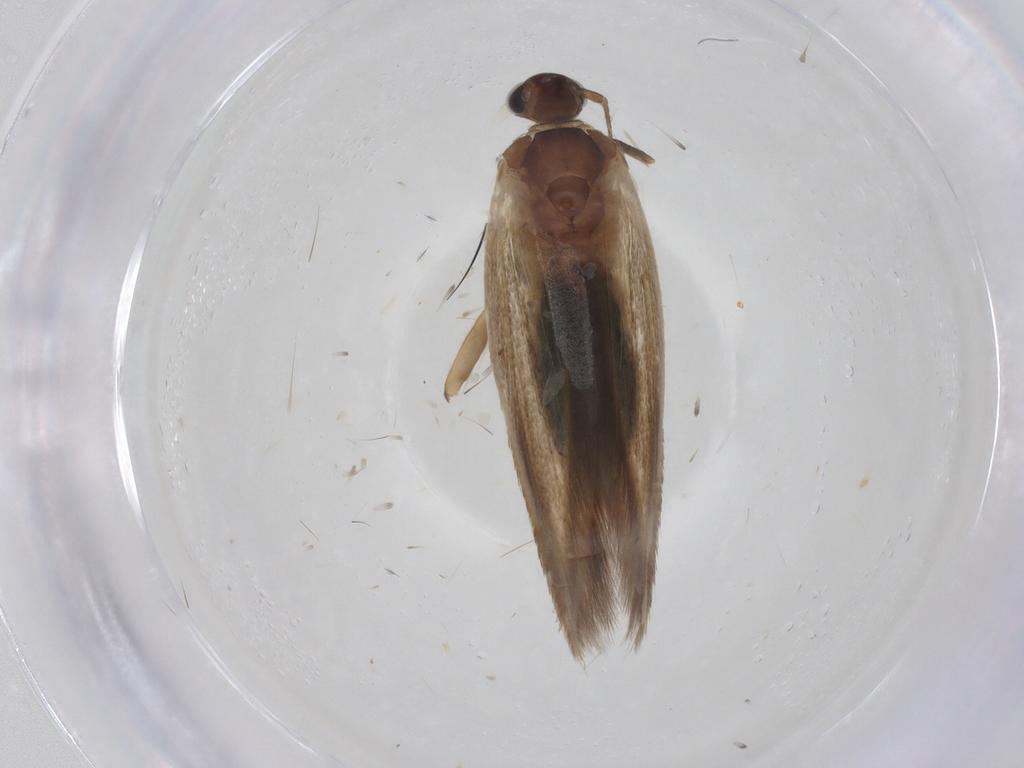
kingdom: Animalia
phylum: Arthropoda
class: Insecta
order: Lepidoptera
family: Cosmopterigidae
